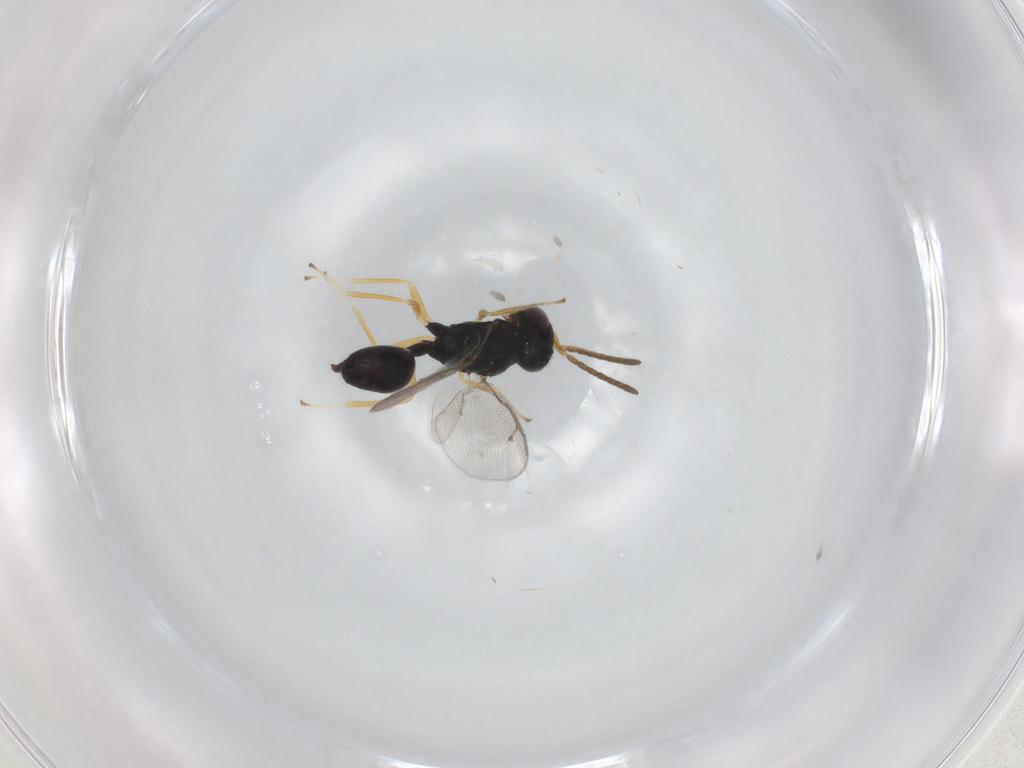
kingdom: Animalia
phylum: Arthropoda
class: Insecta
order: Hymenoptera
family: Pteromalidae
